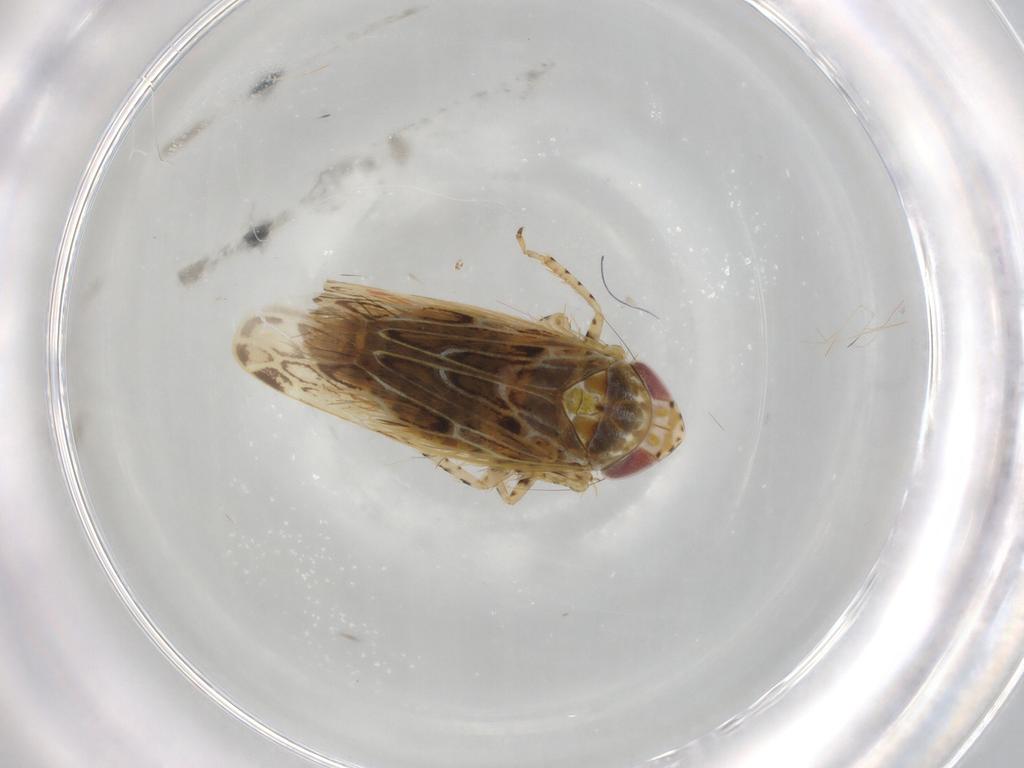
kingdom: Animalia
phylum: Arthropoda
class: Insecta
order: Hemiptera
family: Cicadellidae
